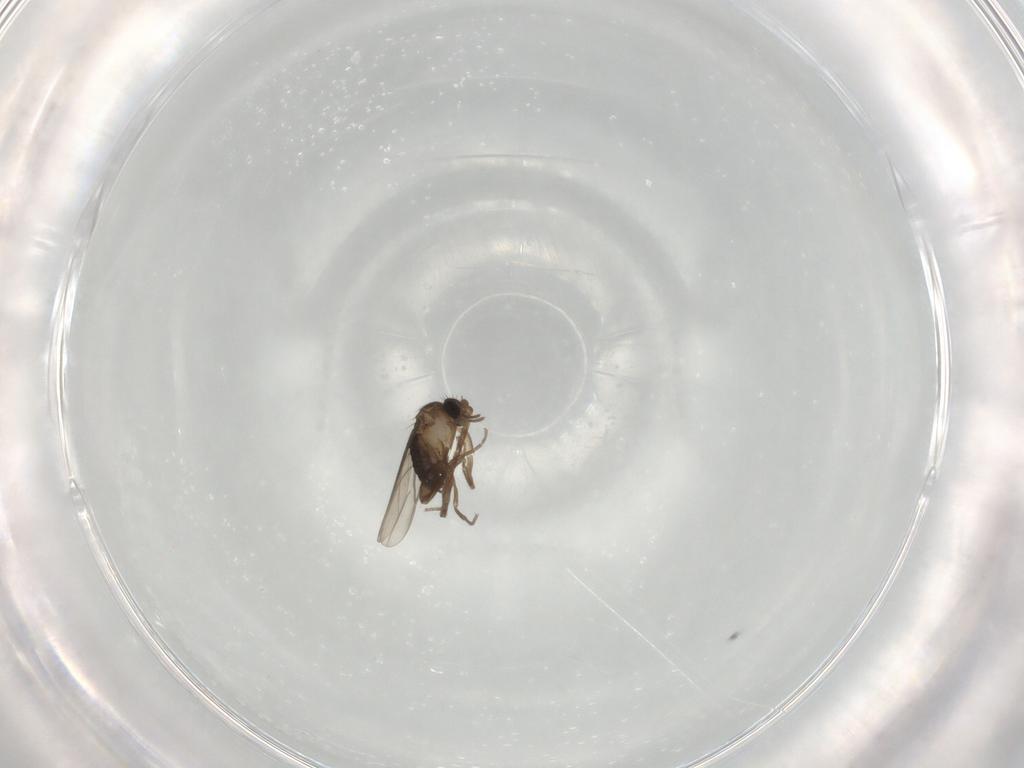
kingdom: Animalia
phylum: Arthropoda
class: Insecta
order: Diptera
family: Sciaridae
